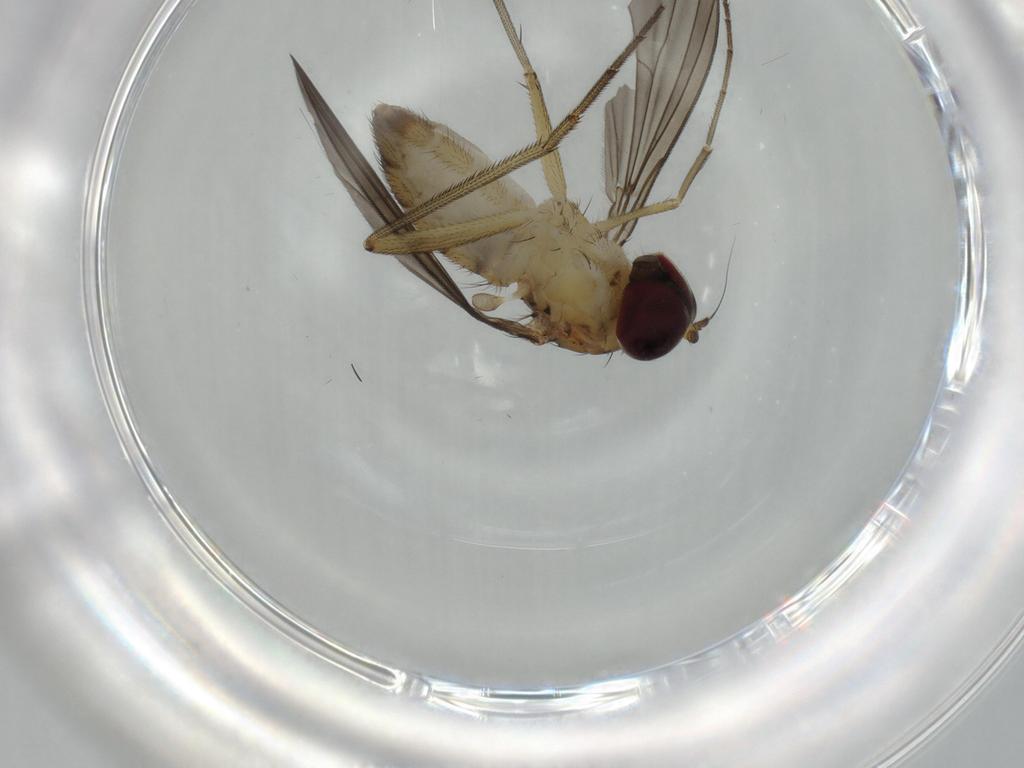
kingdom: Animalia
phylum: Arthropoda
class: Insecta
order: Diptera
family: Dolichopodidae
